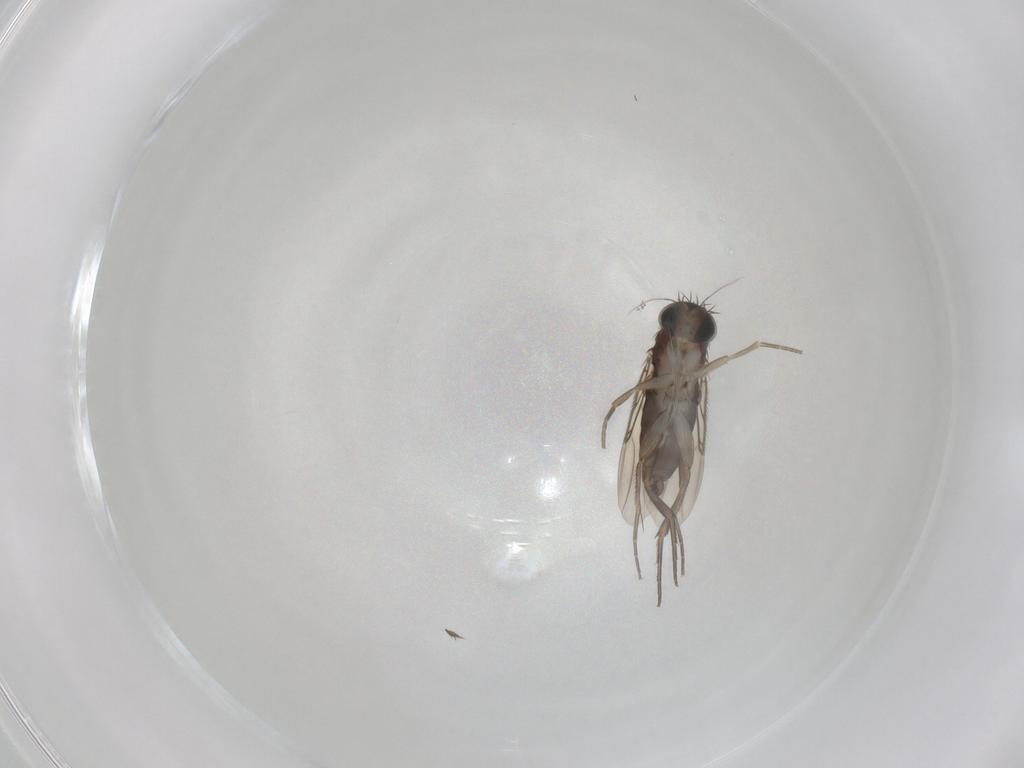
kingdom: Animalia
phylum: Arthropoda
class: Insecta
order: Diptera
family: Phoridae
